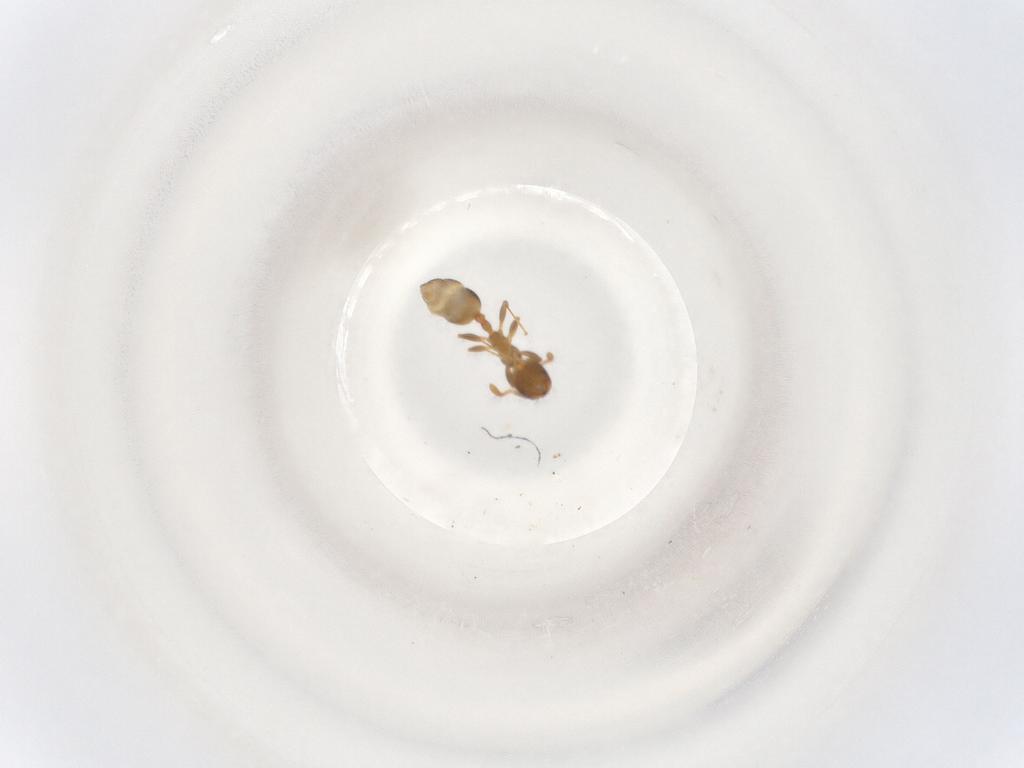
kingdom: Animalia
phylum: Arthropoda
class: Insecta
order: Hymenoptera
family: Formicidae
